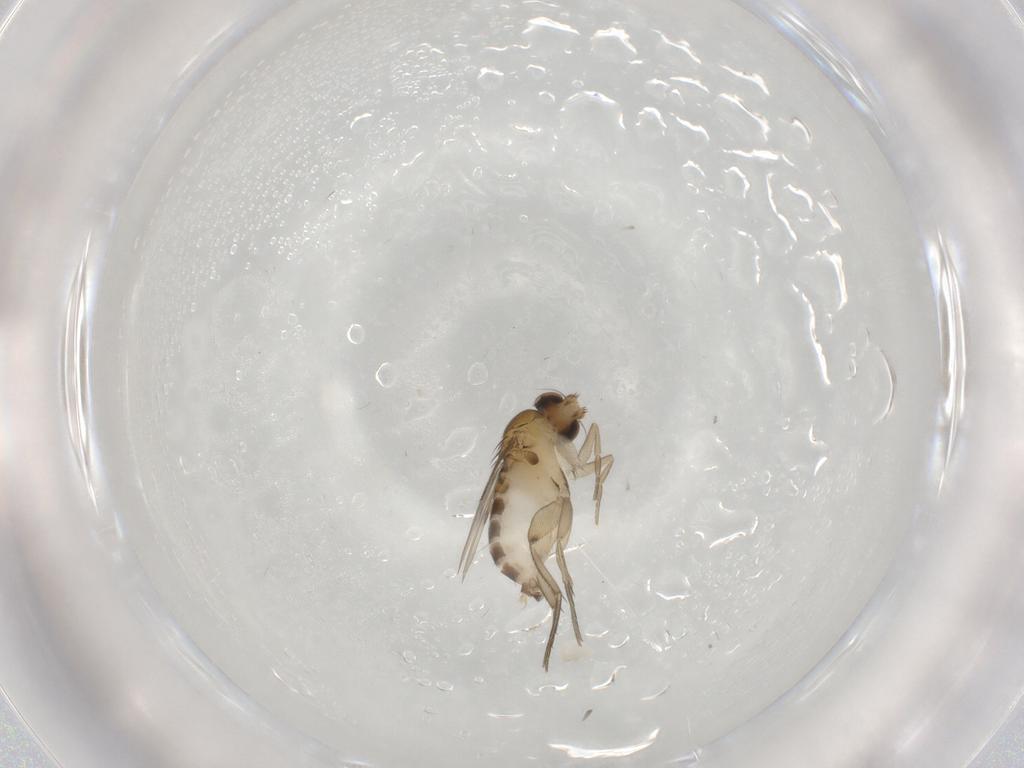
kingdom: Animalia
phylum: Arthropoda
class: Insecta
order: Diptera
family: Phoridae
